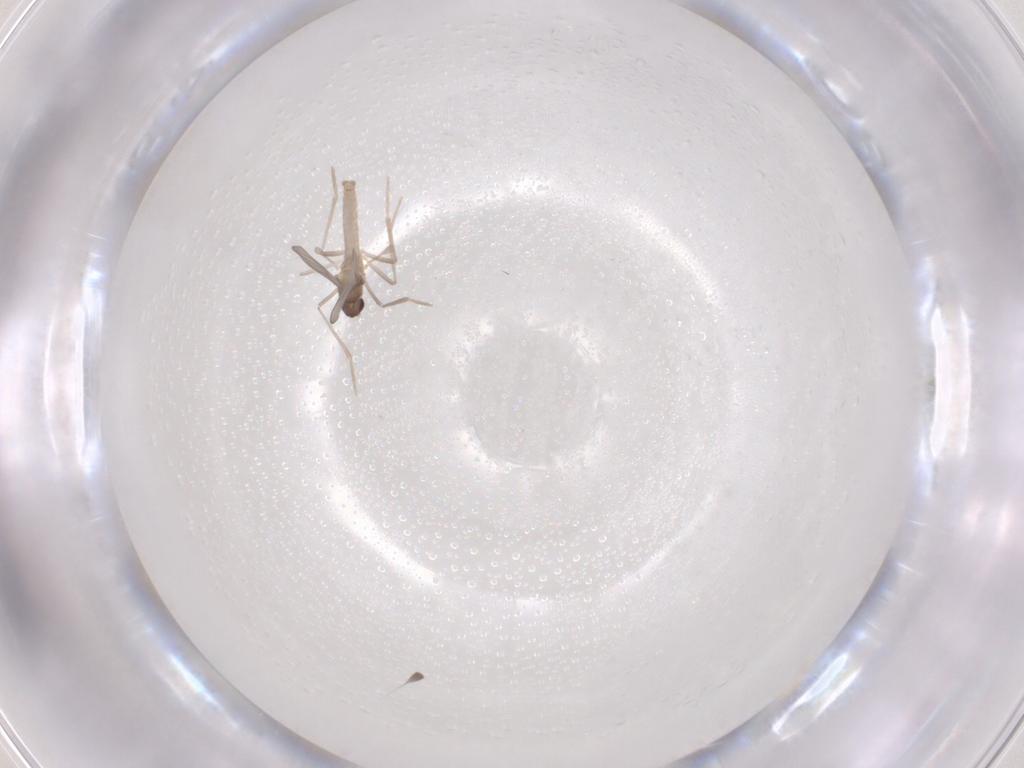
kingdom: Animalia
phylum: Arthropoda
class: Insecta
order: Diptera
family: Cecidomyiidae
